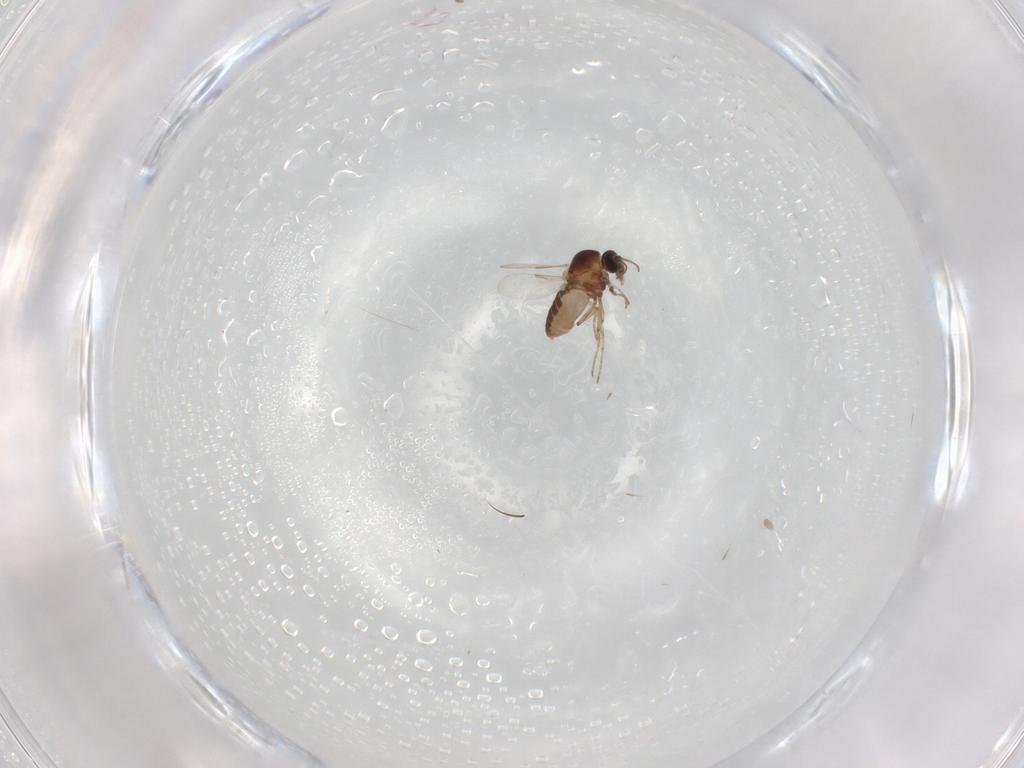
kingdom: Animalia
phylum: Arthropoda
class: Insecta
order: Diptera
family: Ceratopogonidae
